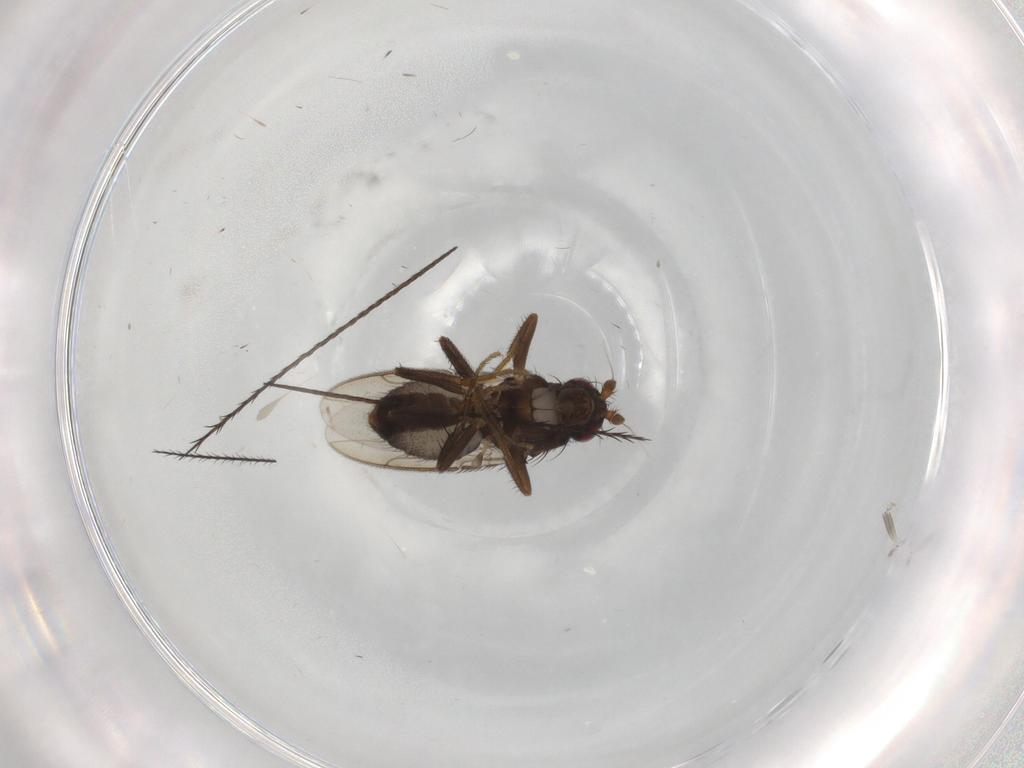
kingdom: Animalia
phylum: Arthropoda
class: Insecta
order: Diptera
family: Sphaeroceridae
